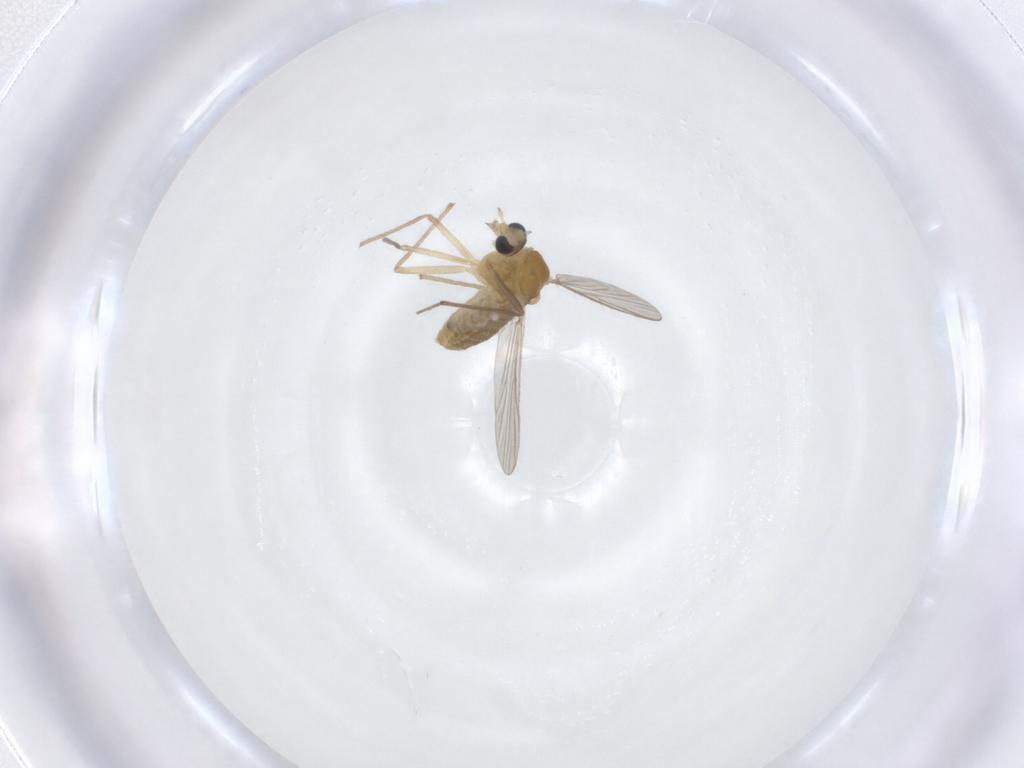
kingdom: Animalia
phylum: Arthropoda
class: Insecta
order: Diptera
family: Chironomidae
